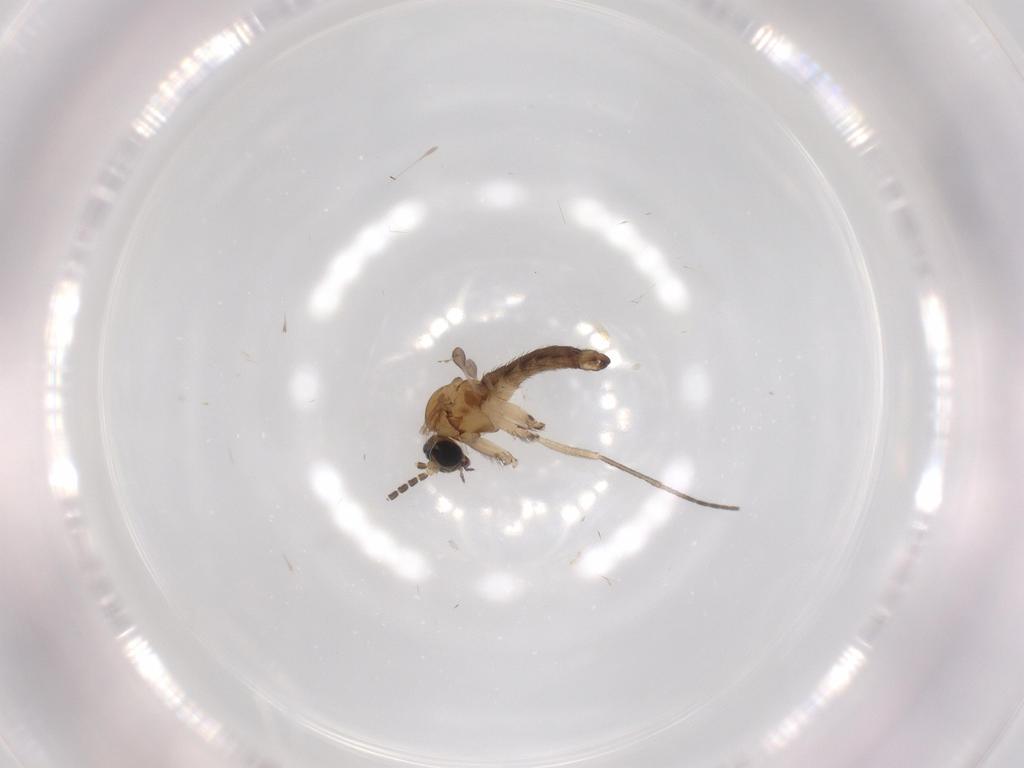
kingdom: Animalia
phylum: Arthropoda
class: Insecta
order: Diptera
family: Sciaridae
